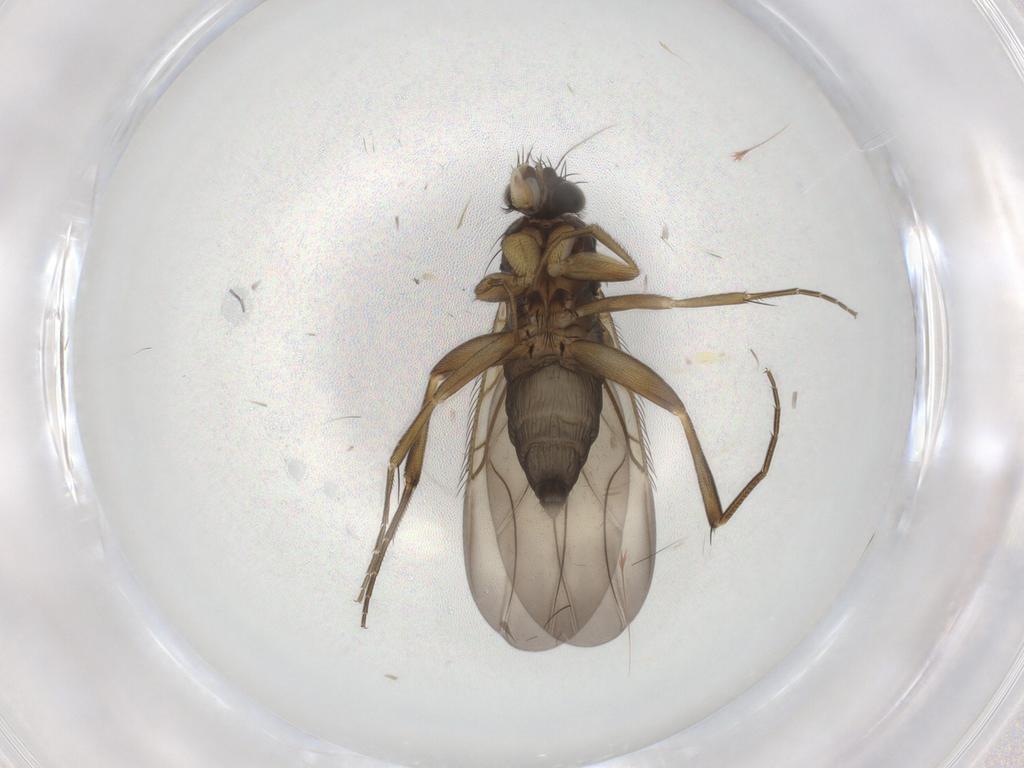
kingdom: Animalia
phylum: Arthropoda
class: Insecta
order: Diptera
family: Phoridae
